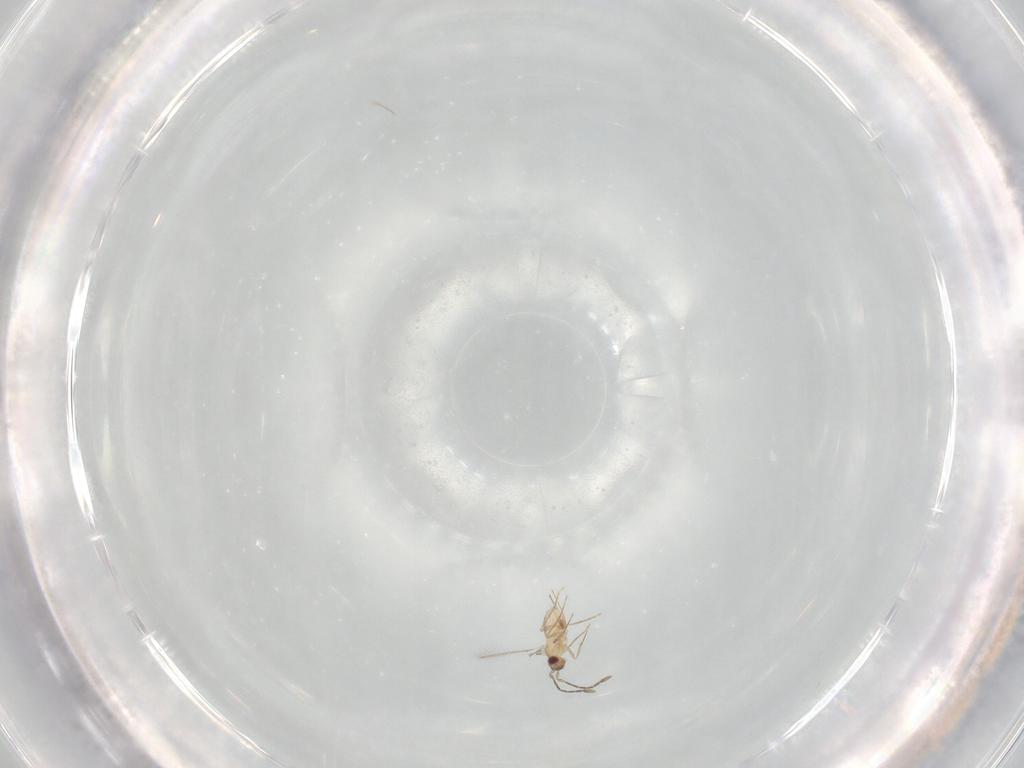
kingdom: Animalia
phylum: Arthropoda
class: Insecta
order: Hymenoptera
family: Mymaridae
